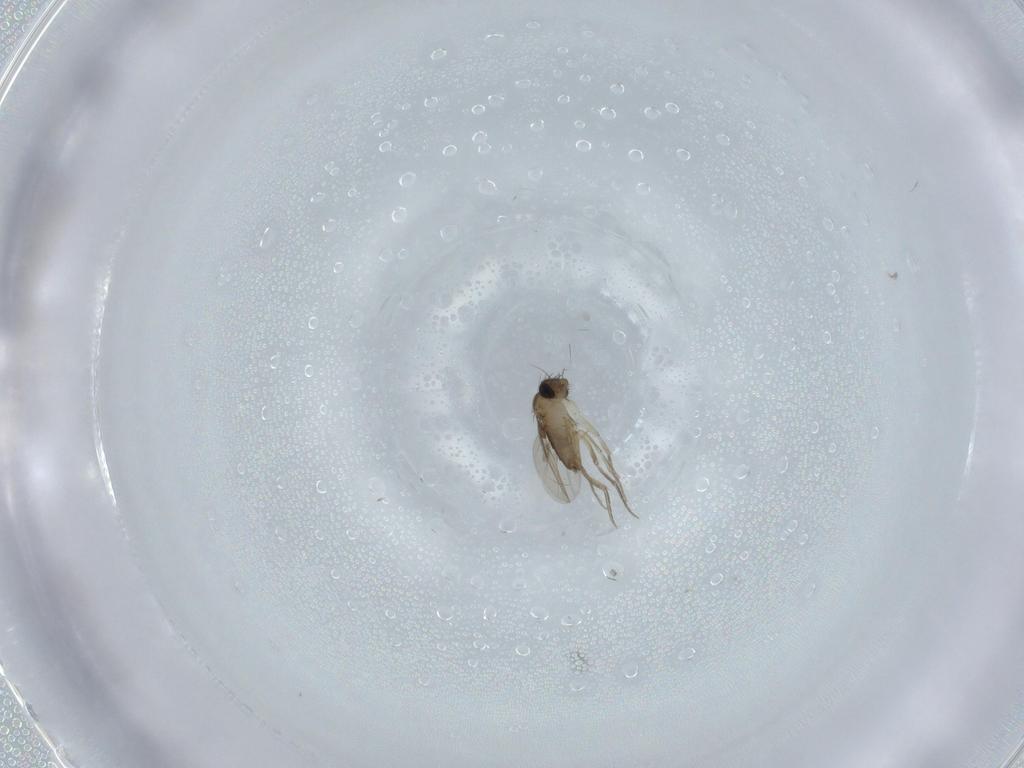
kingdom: Animalia
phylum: Arthropoda
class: Insecta
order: Diptera
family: Phoridae
